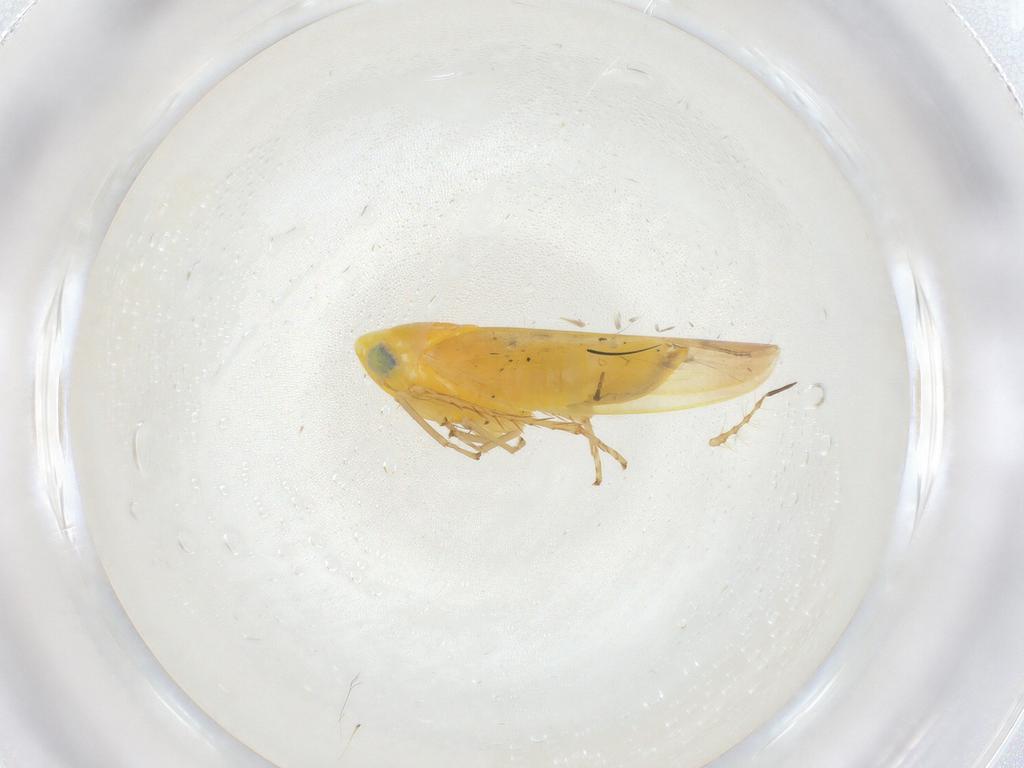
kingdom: Animalia
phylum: Arthropoda
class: Insecta
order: Hemiptera
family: Cicadellidae
